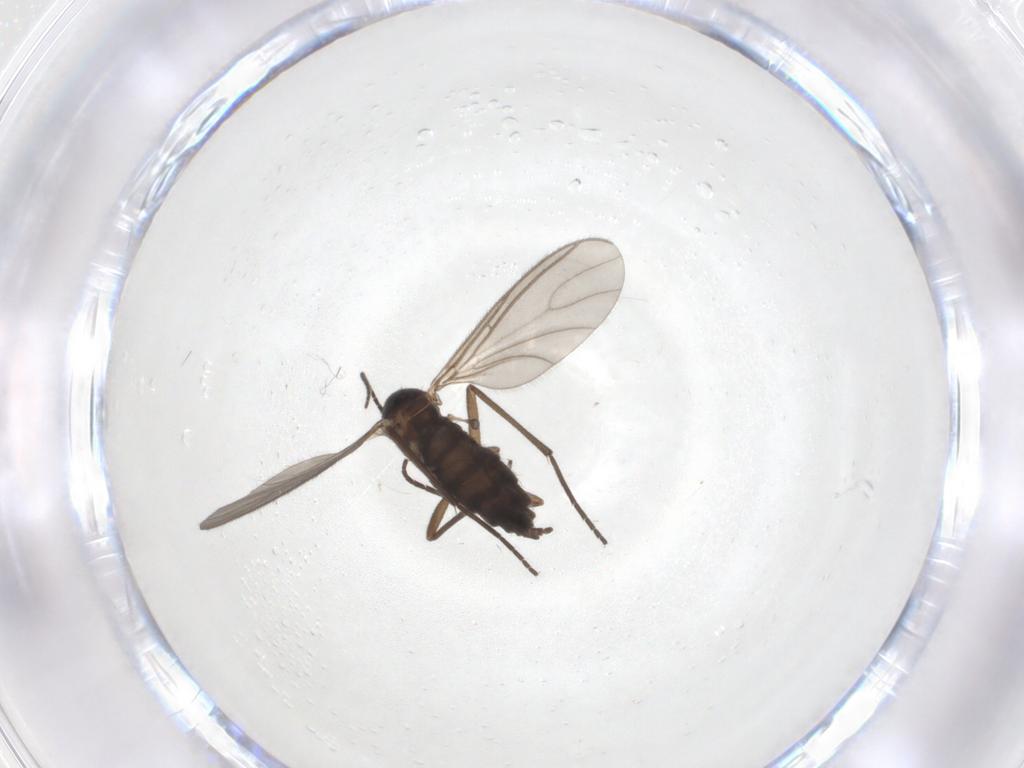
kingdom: Animalia
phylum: Arthropoda
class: Insecta
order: Diptera
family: Sciaridae
